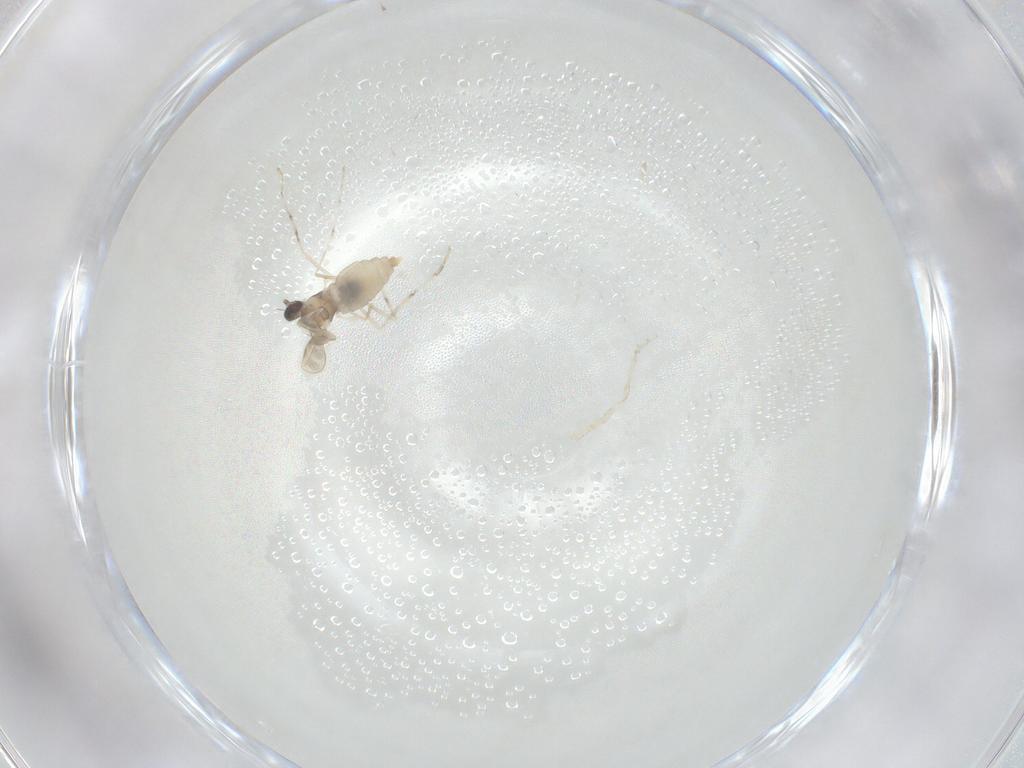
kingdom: Animalia
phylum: Arthropoda
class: Insecta
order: Diptera
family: Cecidomyiidae
